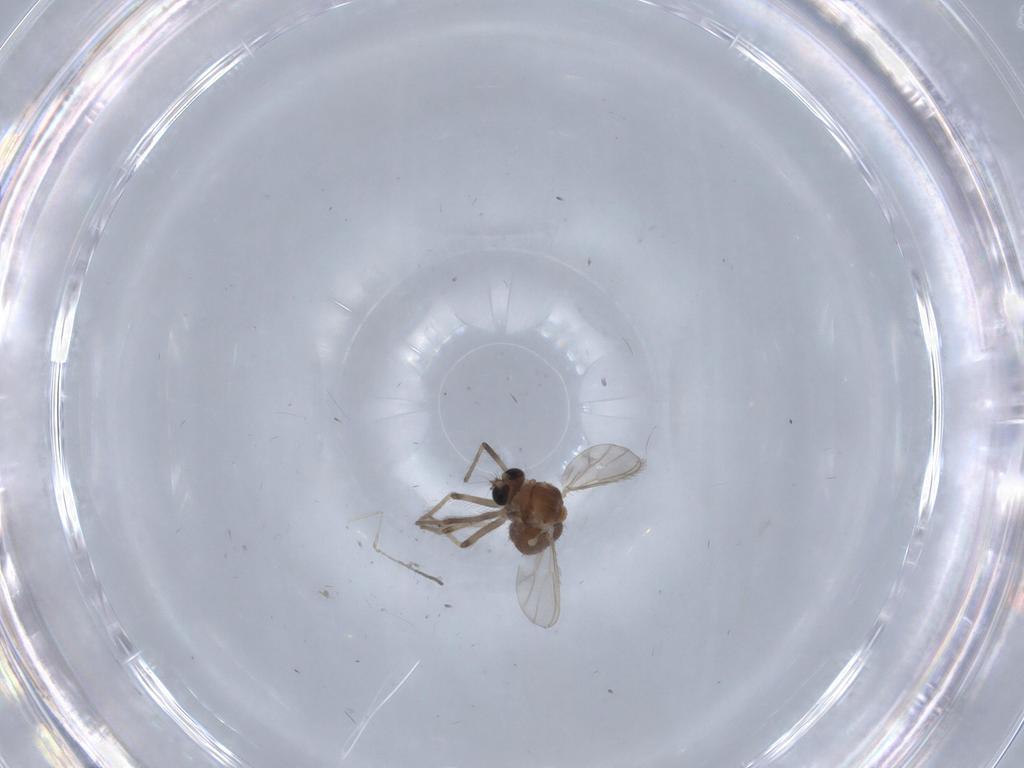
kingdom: Animalia
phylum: Arthropoda
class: Insecta
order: Diptera
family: Chironomidae
